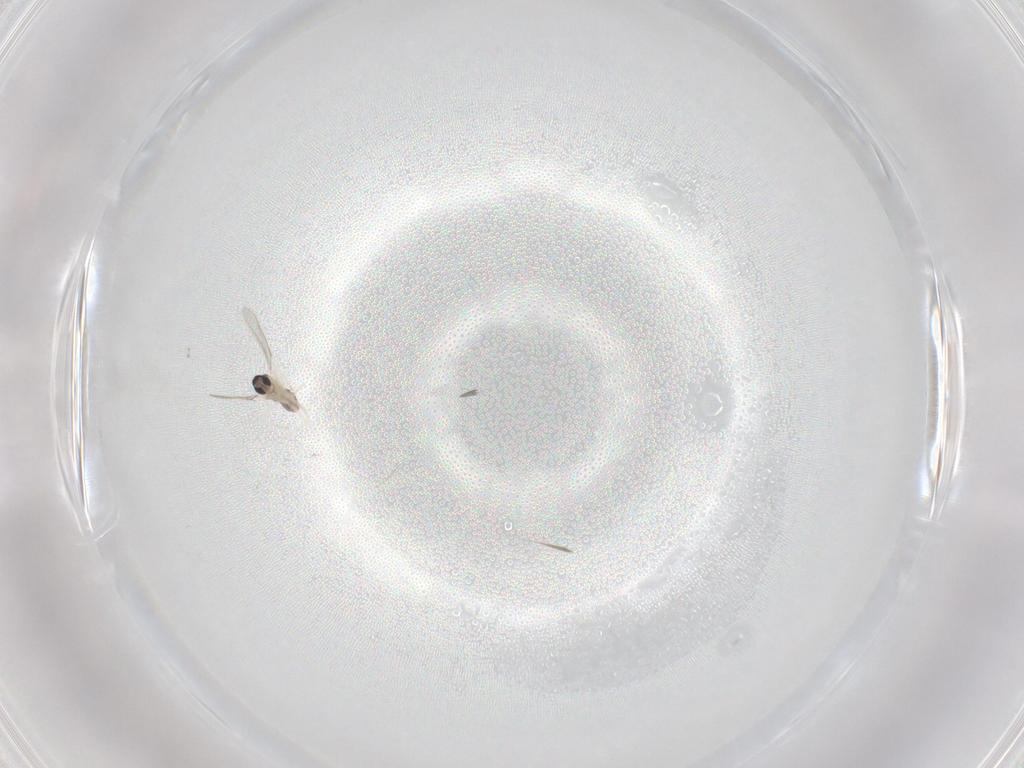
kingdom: Animalia
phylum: Arthropoda
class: Insecta
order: Diptera
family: Cecidomyiidae
